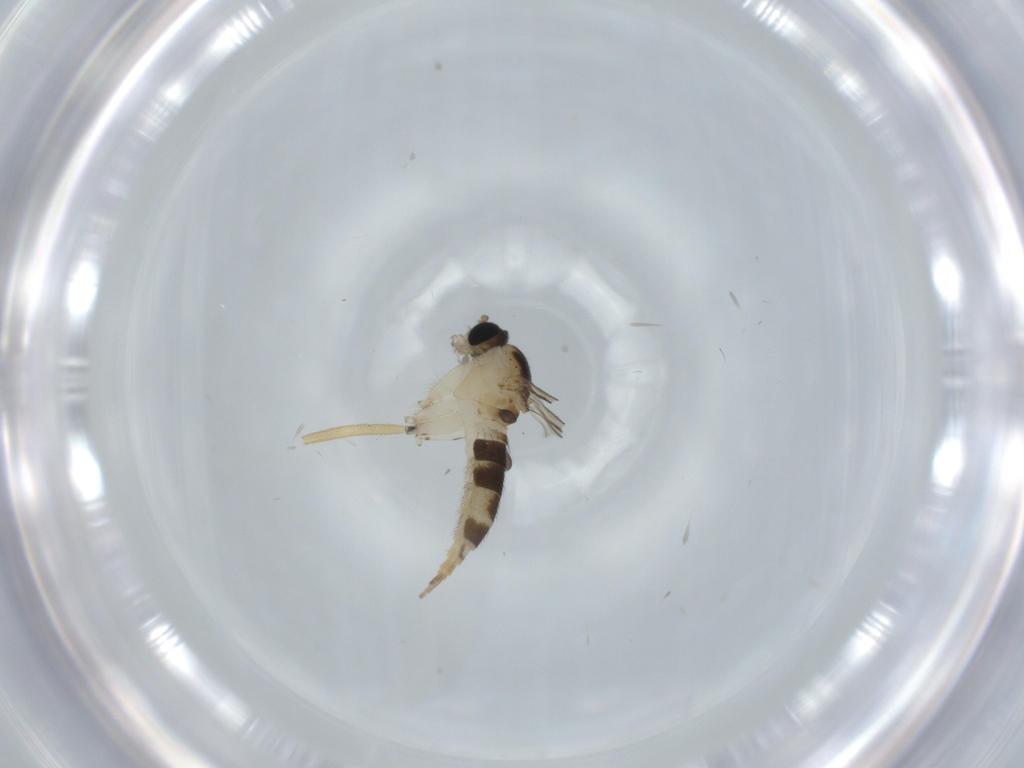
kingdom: Animalia
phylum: Arthropoda
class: Insecta
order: Diptera
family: Sciaridae
